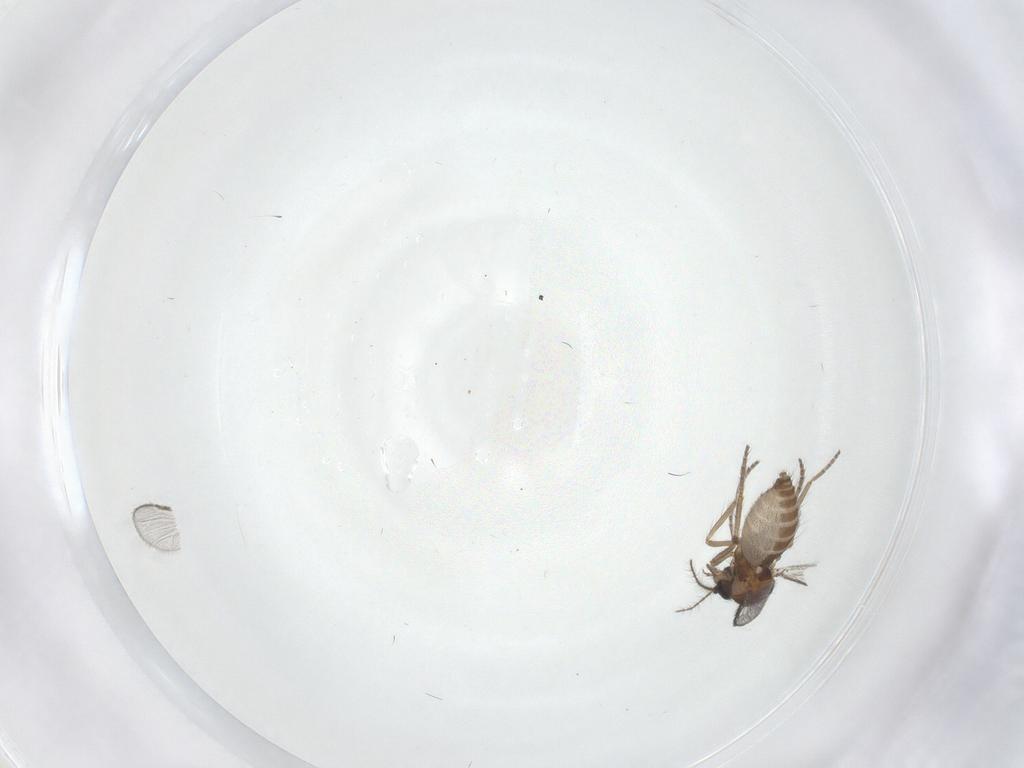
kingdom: Animalia
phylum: Arthropoda
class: Insecta
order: Diptera
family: Ceratopogonidae
